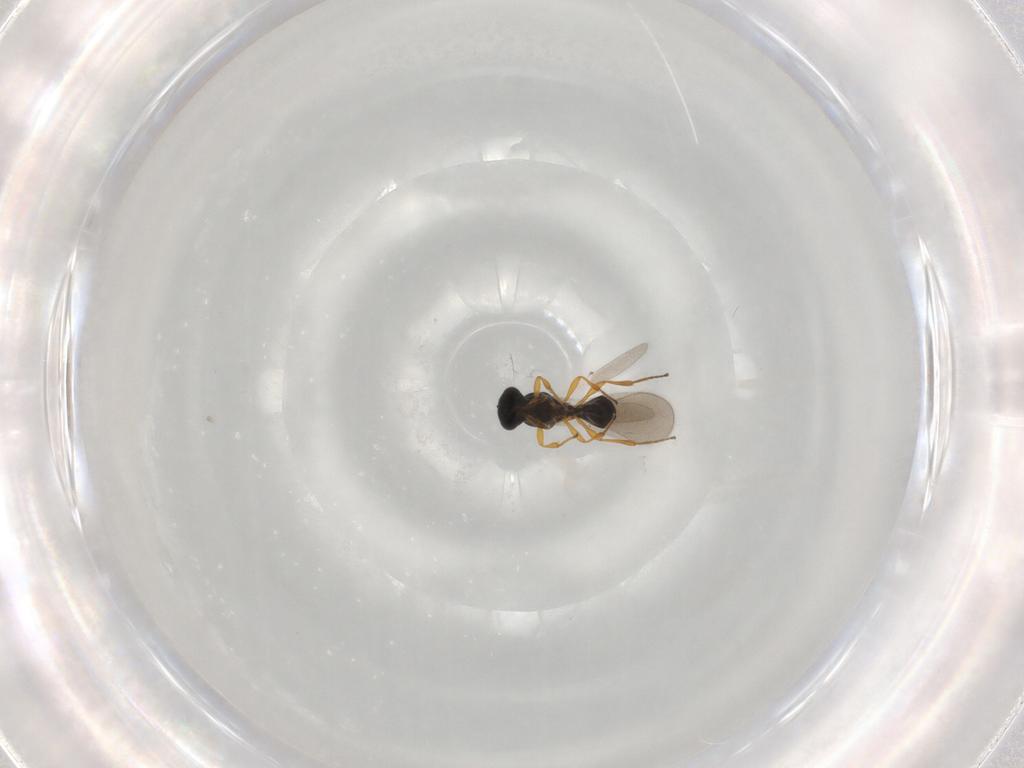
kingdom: Animalia
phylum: Arthropoda
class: Insecta
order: Hymenoptera
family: Platygastridae
